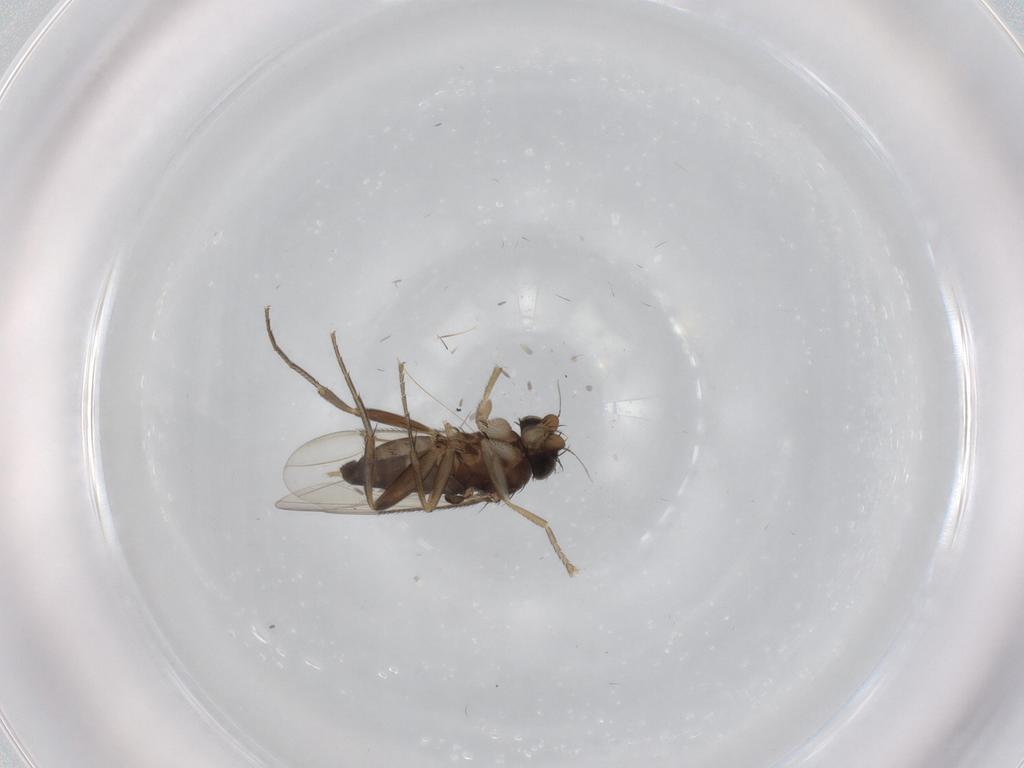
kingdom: Animalia
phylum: Arthropoda
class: Insecta
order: Diptera
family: Phoridae
